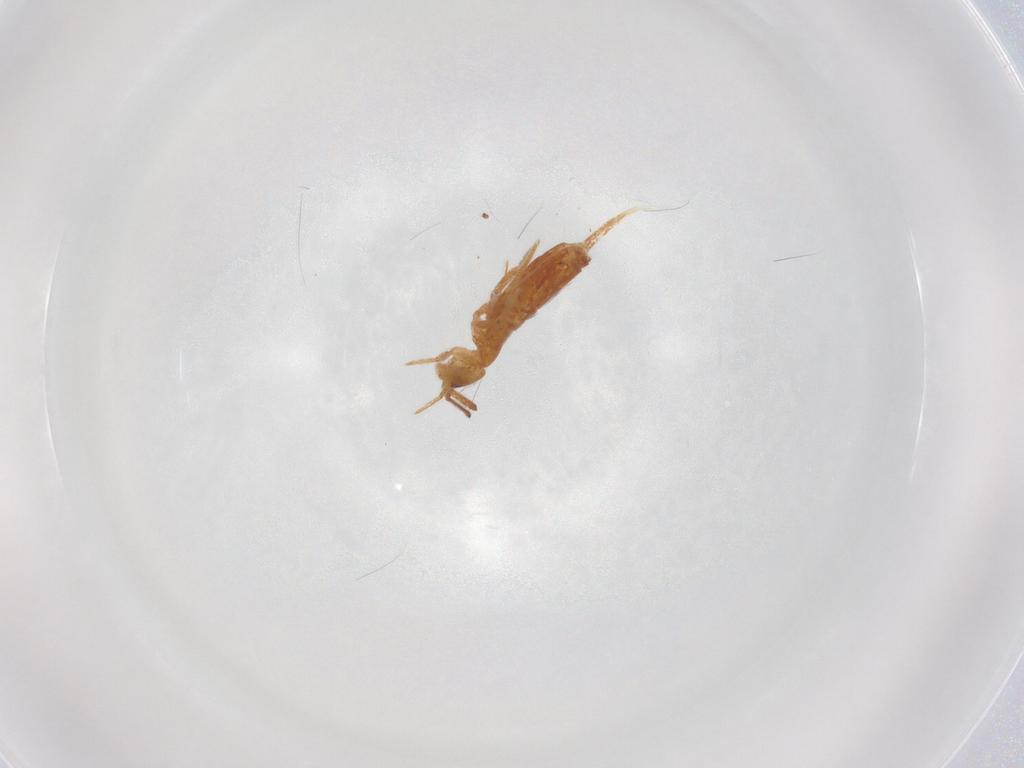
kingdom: Animalia
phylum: Arthropoda
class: Collembola
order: Entomobryomorpha
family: Entomobryidae
